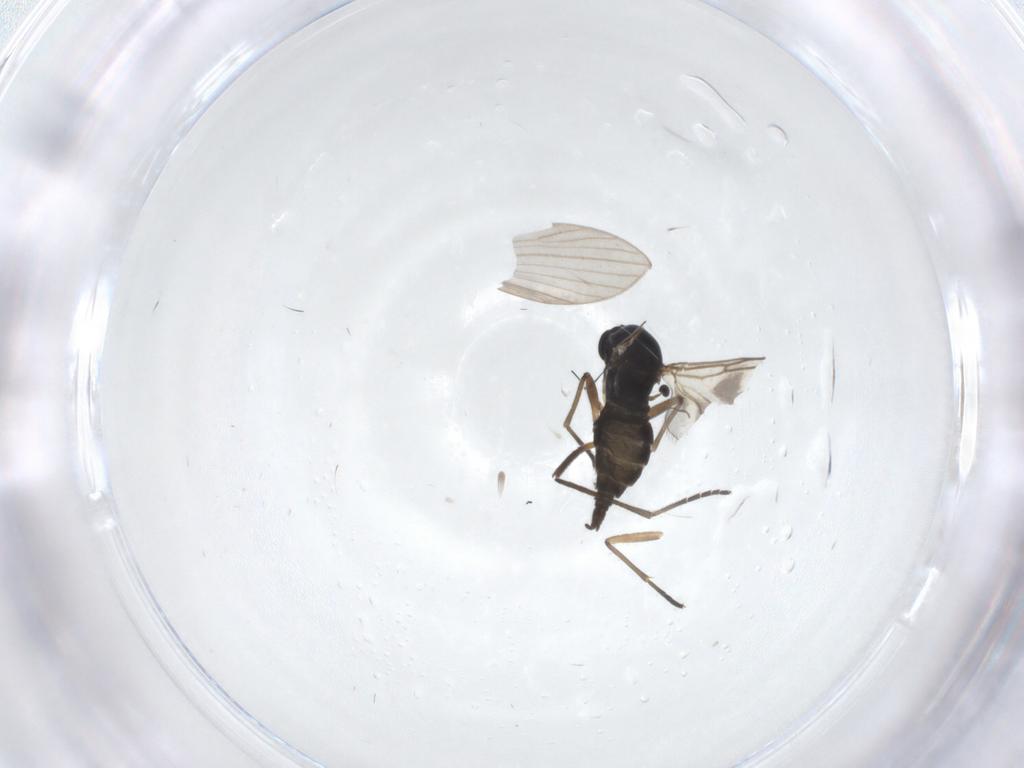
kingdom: Animalia
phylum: Arthropoda
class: Insecta
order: Diptera
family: Sciaridae
